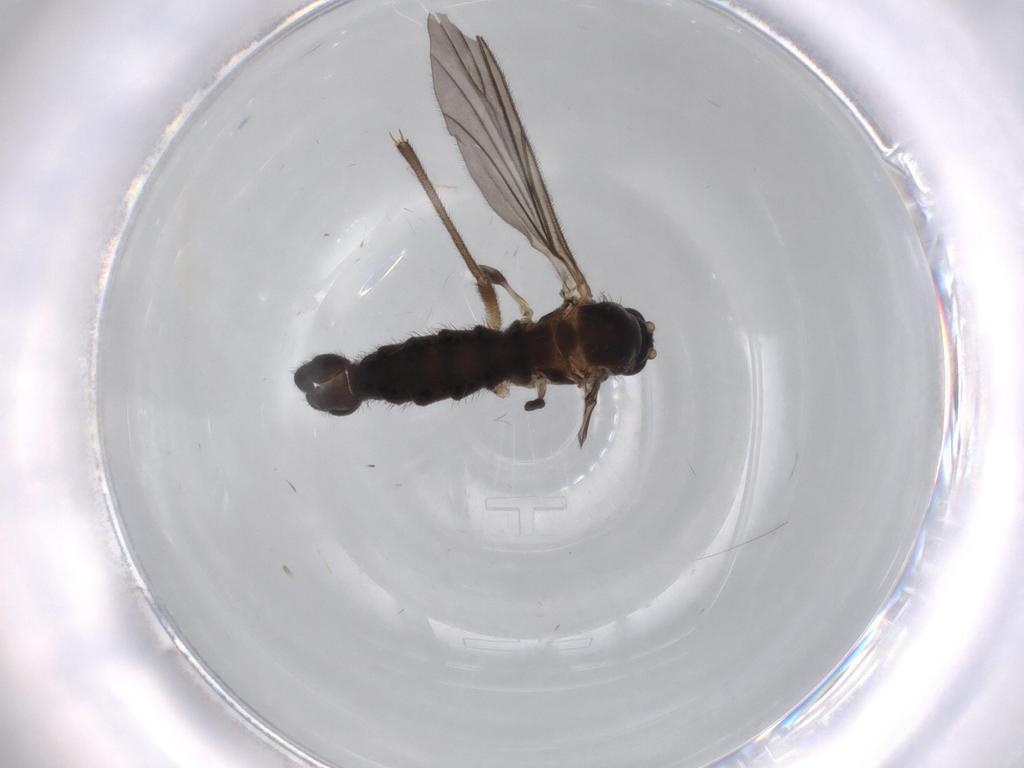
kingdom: Animalia
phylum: Arthropoda
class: Insecta
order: Diptera
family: Sciaridae
